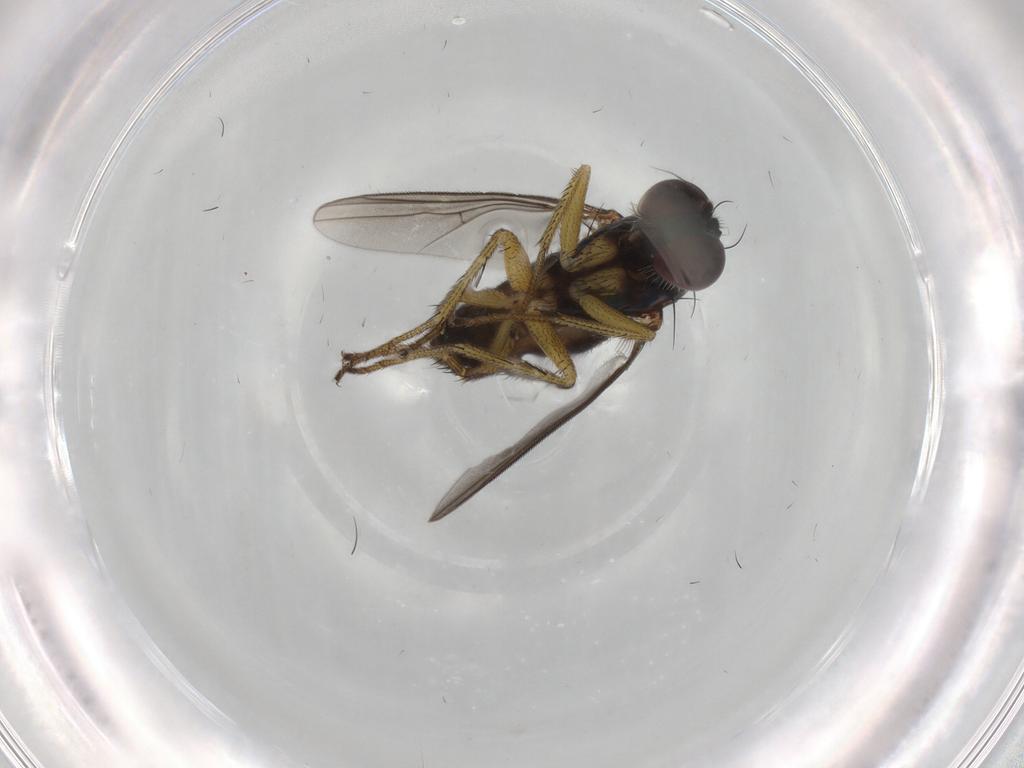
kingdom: Animalia
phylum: Arthropoda
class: Insecta
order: Diptera
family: Dolichopodidae
